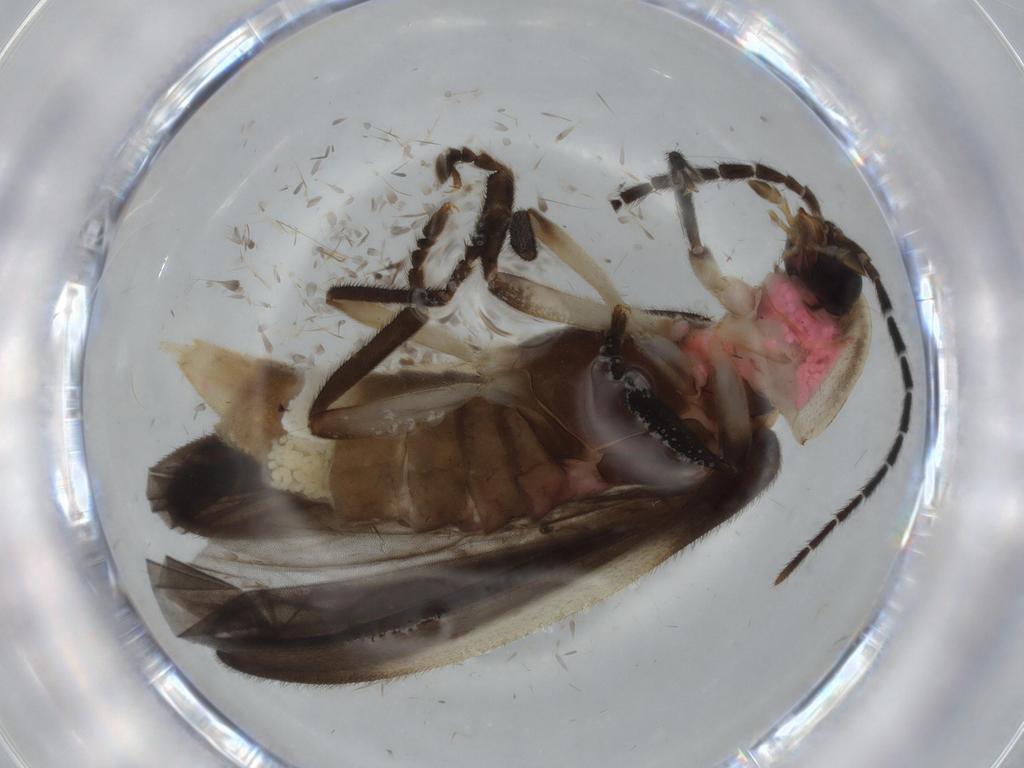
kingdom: Animalia
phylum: Arthropoda
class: Insecta
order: Coleoptera
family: Lampyridae
